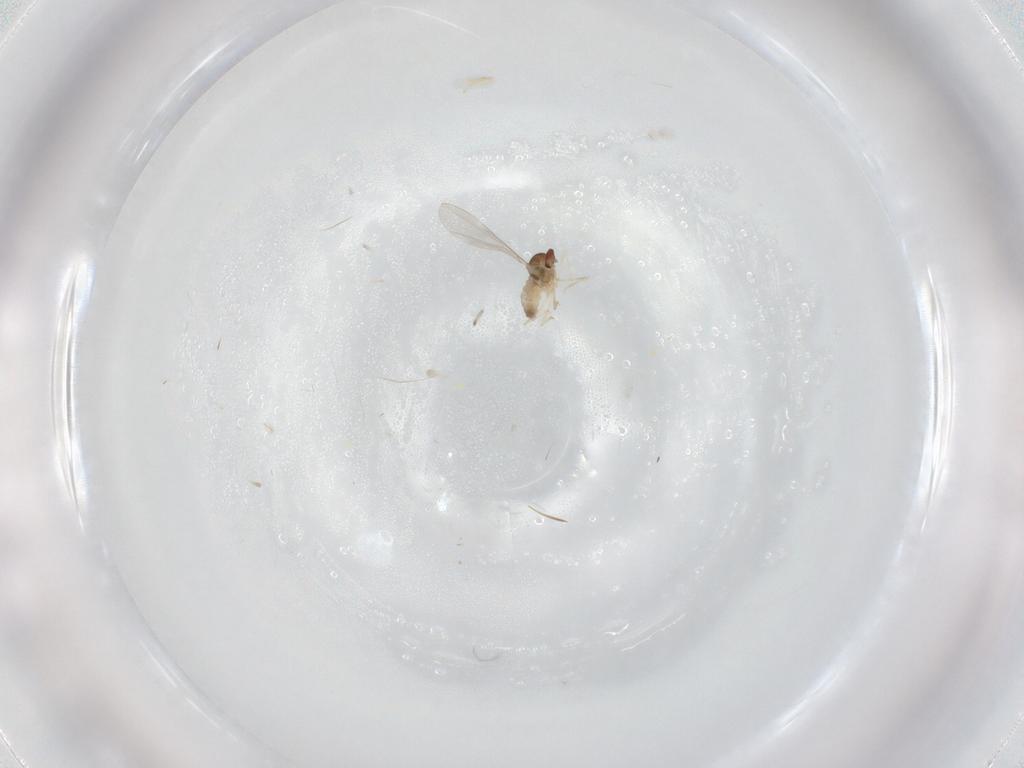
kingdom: Animalia
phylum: Arthropoda
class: Insecta
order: Diptera
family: Cecidomyiidae
